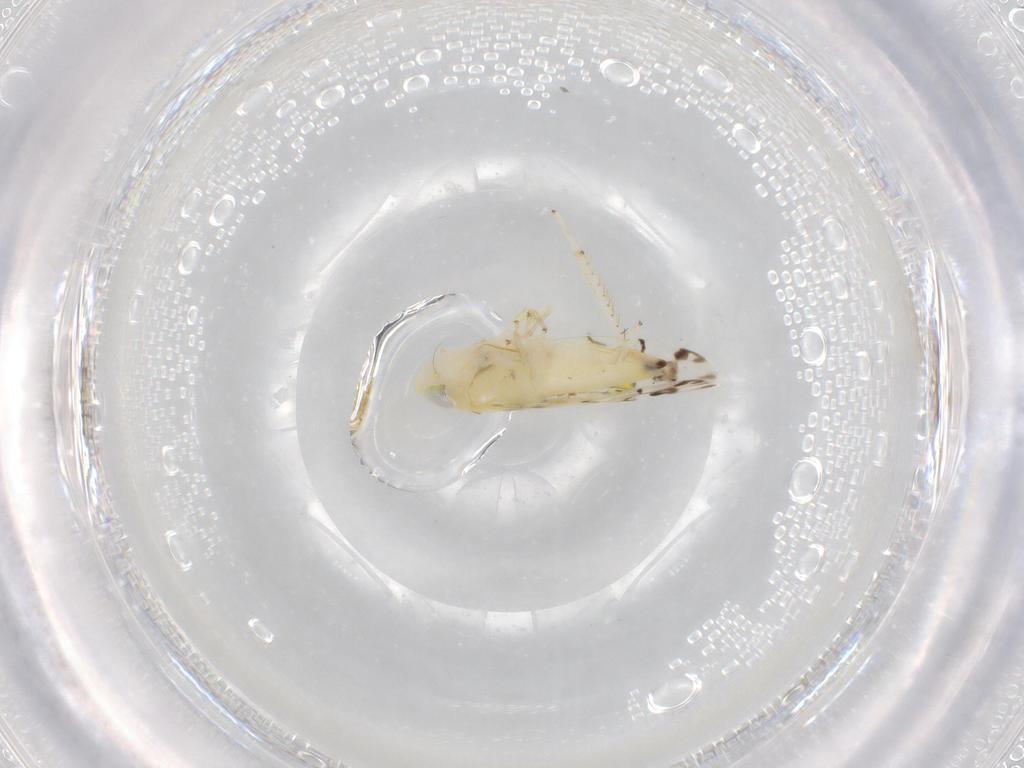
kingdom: Animalia
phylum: Arthropoda
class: Insecta
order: Hemiptera
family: Cicadellidae
